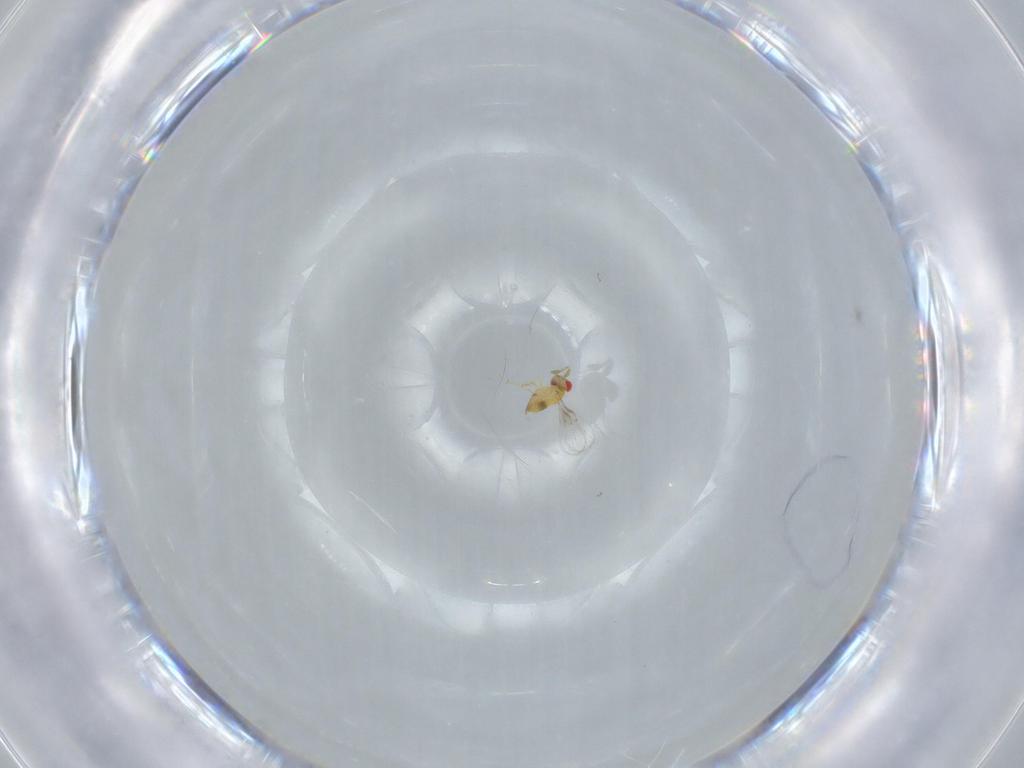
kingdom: Animalia
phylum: Arthropoda
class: Insecta
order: Hymenoptera
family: Trichogrammatidae
